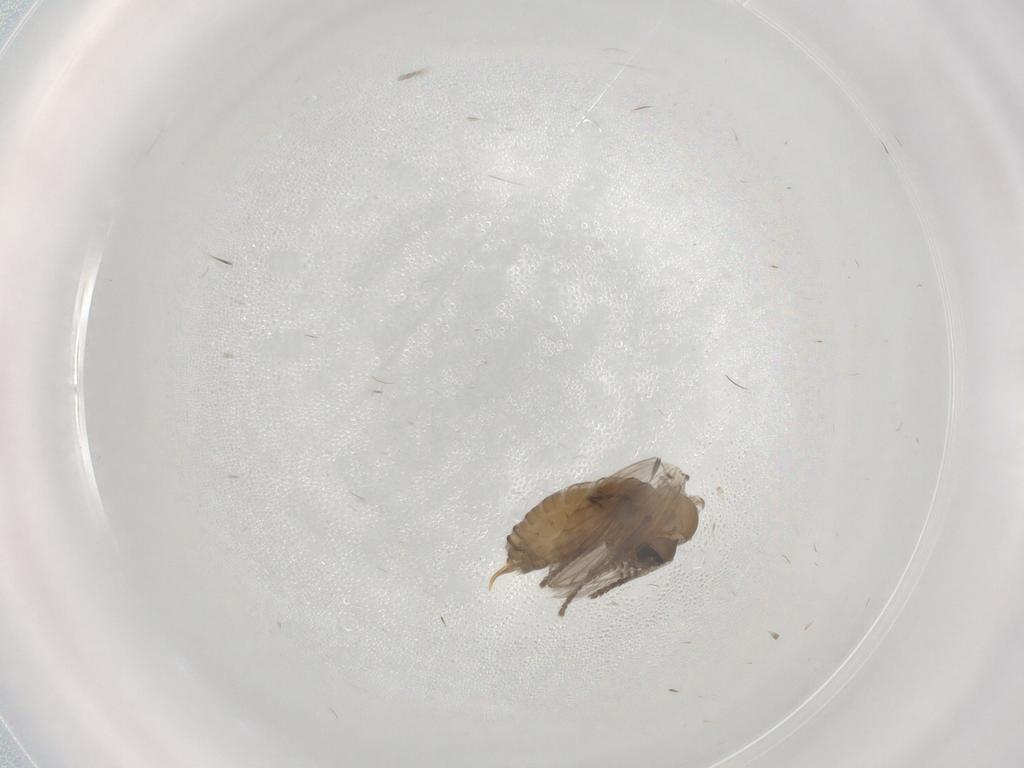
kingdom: Animalia
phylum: Arthropoda
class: Insecta
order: Diptera
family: Psychodidae
